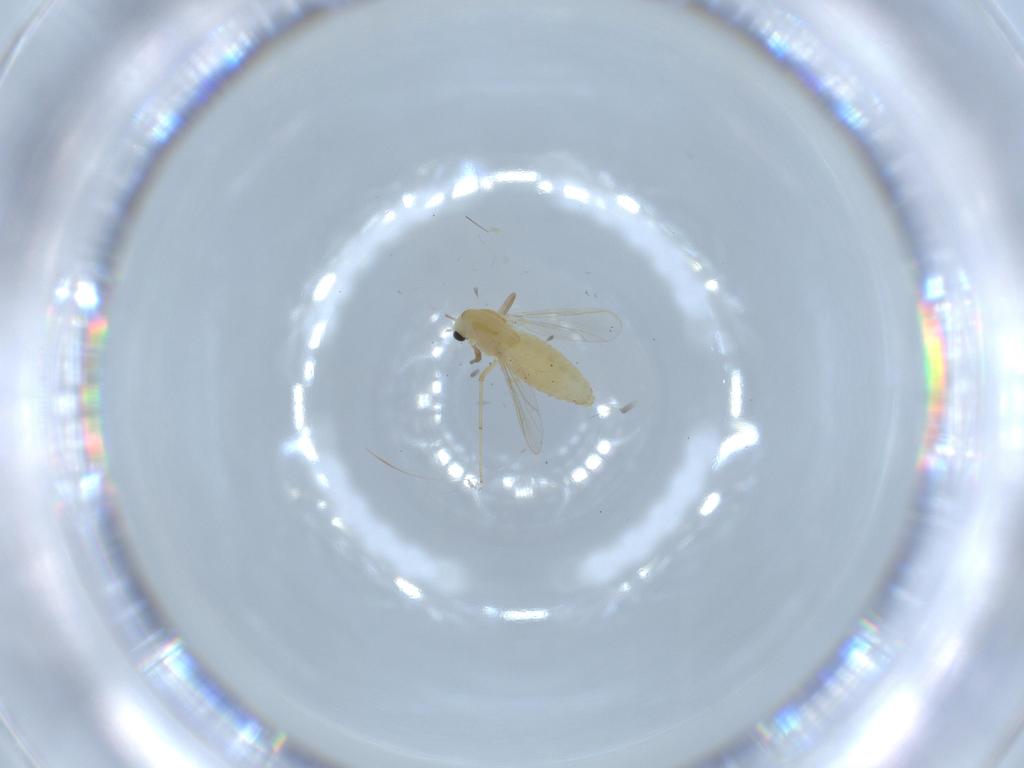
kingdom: Animalia
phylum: Arthropoda
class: Insecta
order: Diptera
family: Chironomidae
